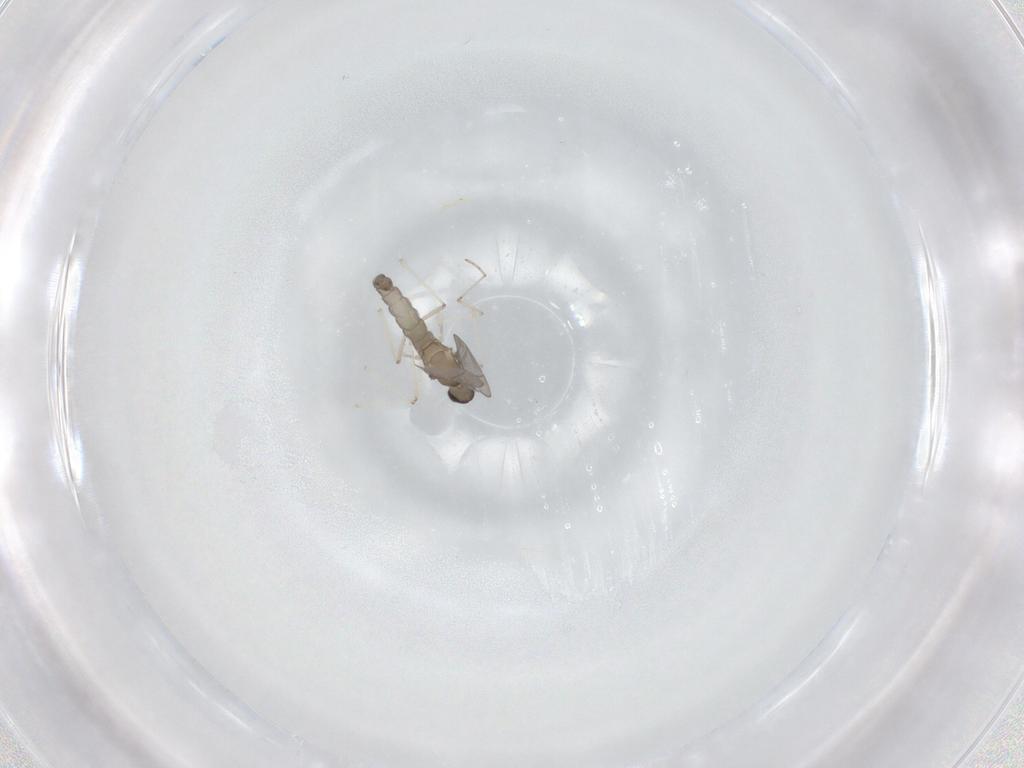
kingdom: Animalia
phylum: Arthropoda
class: Insecta
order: Diptera
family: Cecidomyiidae
